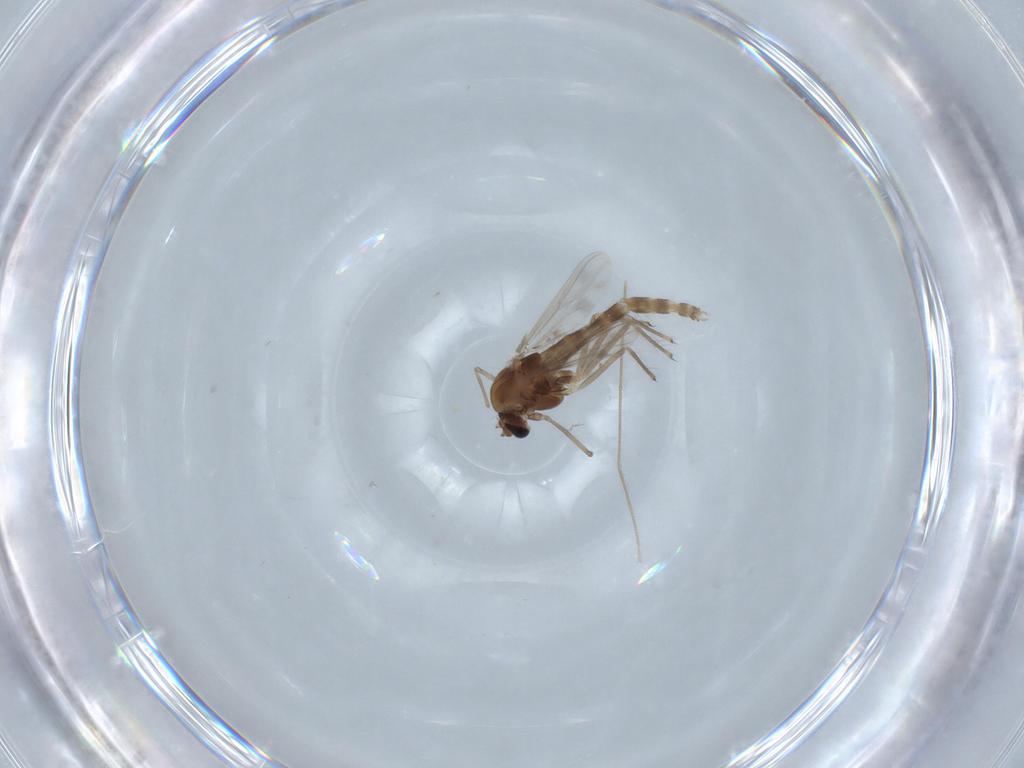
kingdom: Animalia
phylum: Arthropoda
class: Insecta
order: Diptera
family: Chironomidae
